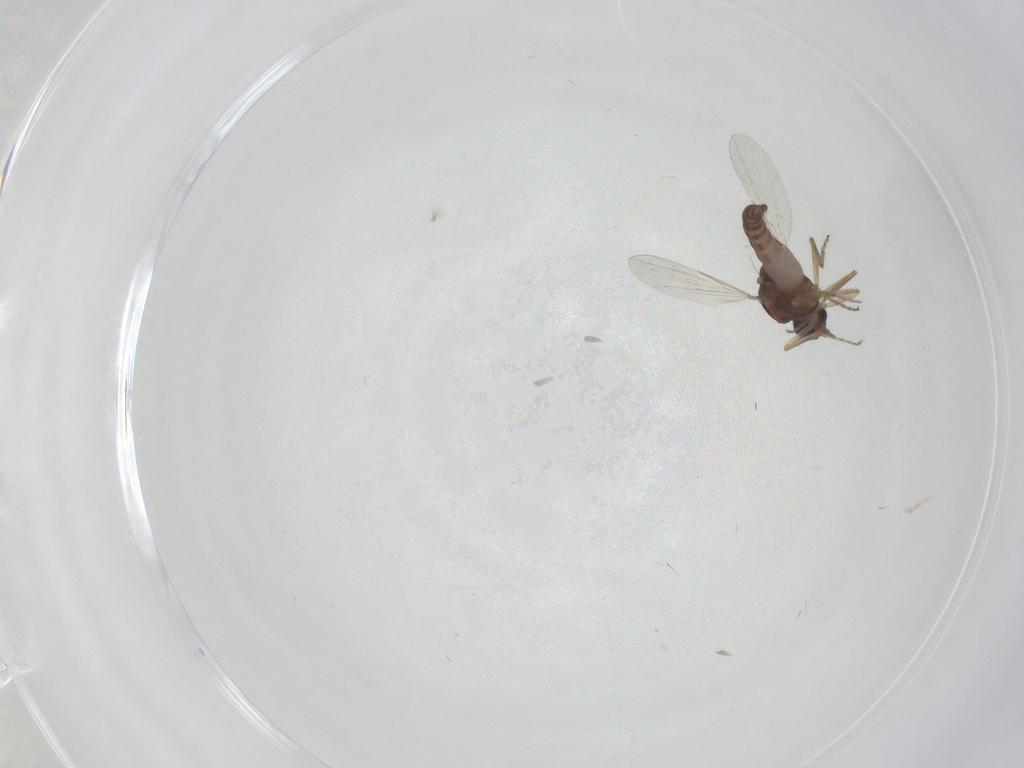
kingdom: Animalia
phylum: Arthropoda
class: Insecta
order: Diptera
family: Ceratopogonidae
